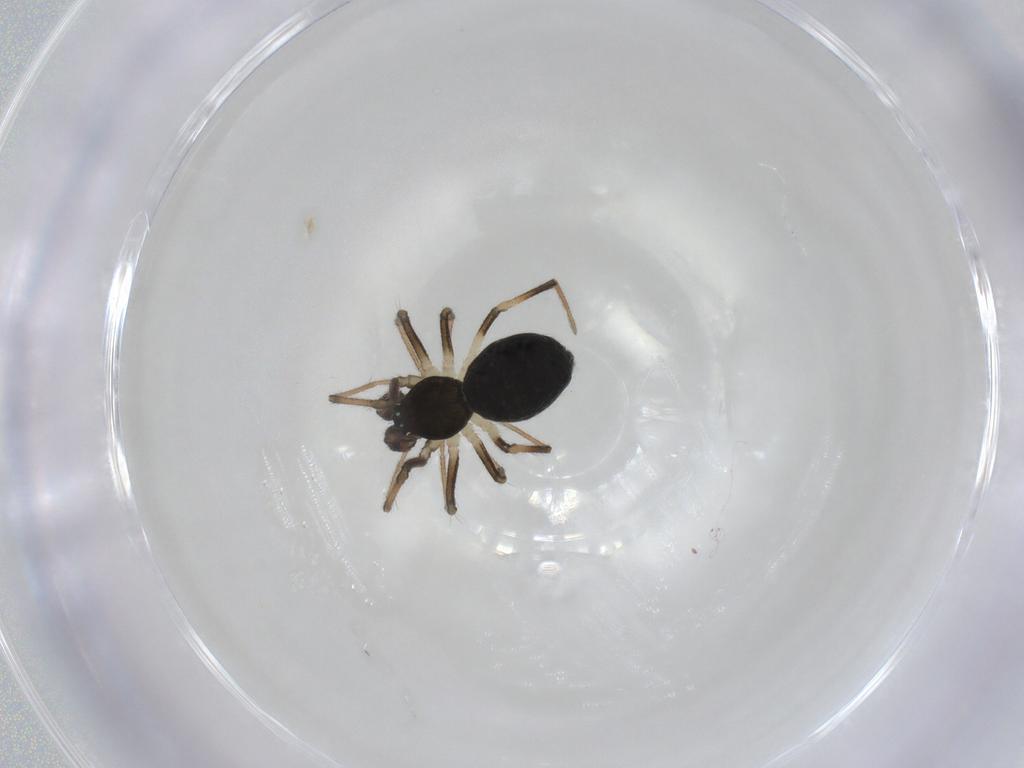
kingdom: Animalia
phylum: Arthropoda
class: Arachnida
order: Araneae
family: Linyphiidae
